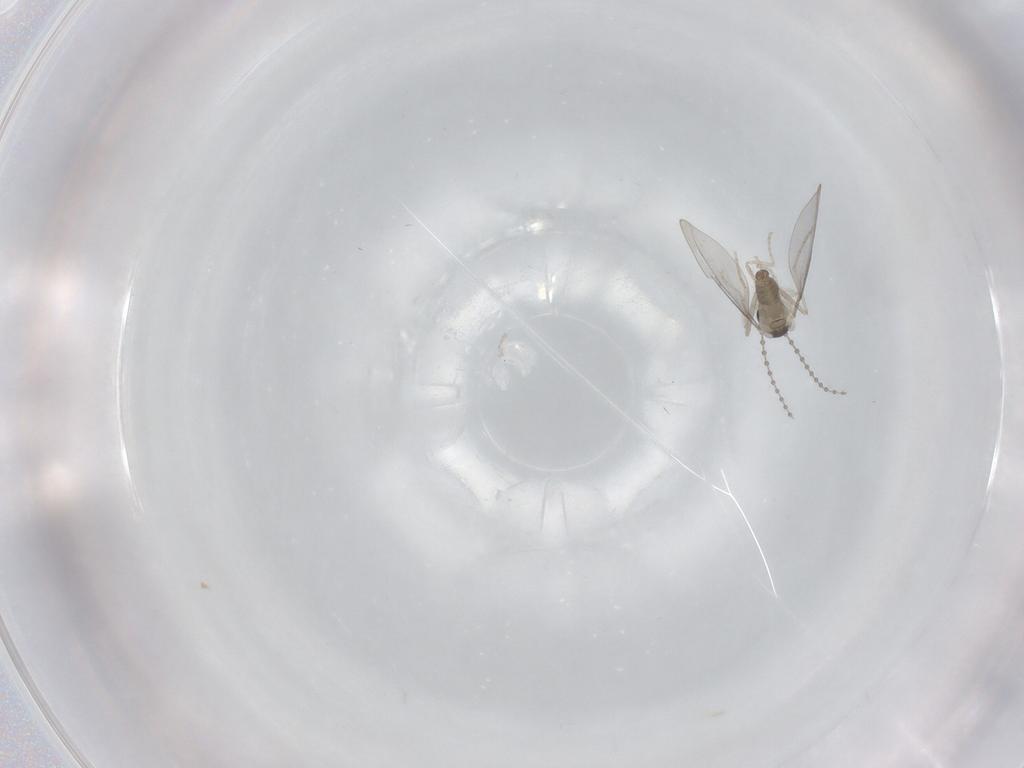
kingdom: Animalia
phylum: Arthropoda
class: Insecta
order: Diptera
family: Cecidomyiidae
